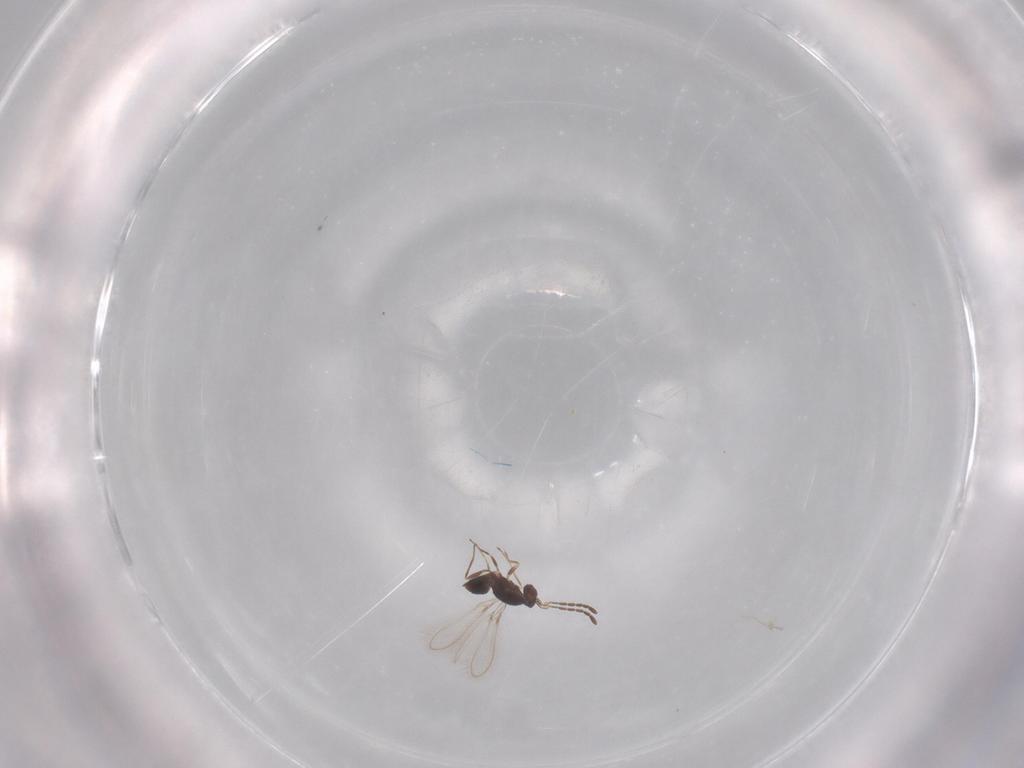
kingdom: Animalia
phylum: Arthropoda
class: Insecta
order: Hymenoptera
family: Mymaridae
